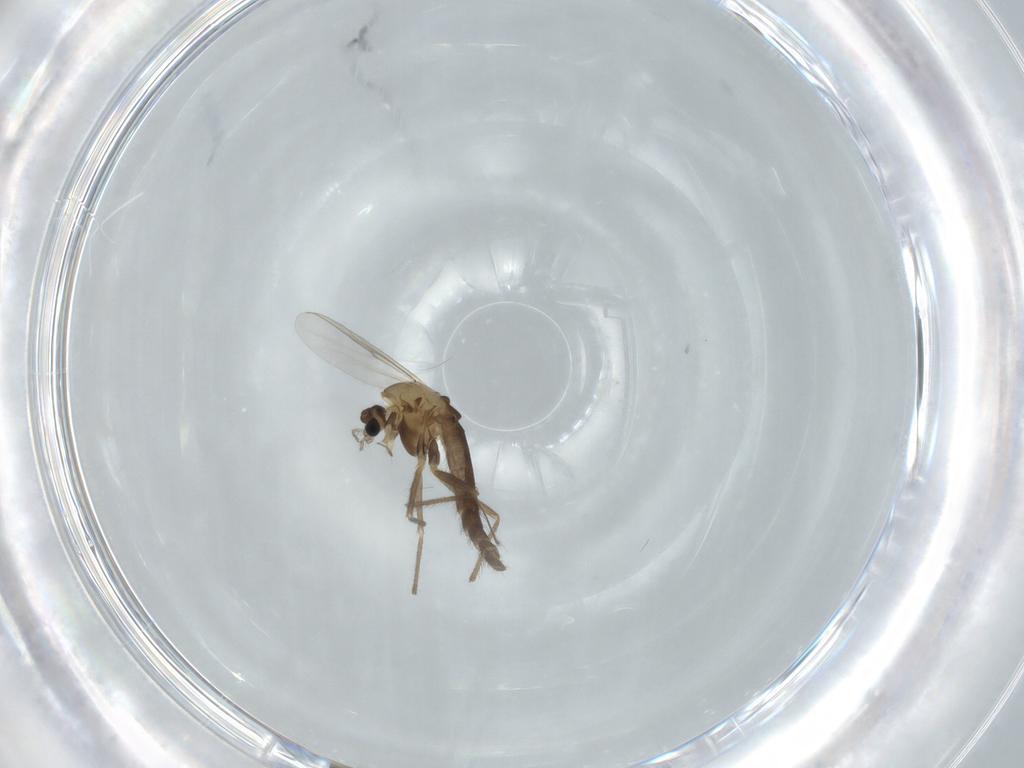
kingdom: Animalia
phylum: Arthropoda
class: Insecta
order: Diptera
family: Chironomidae
